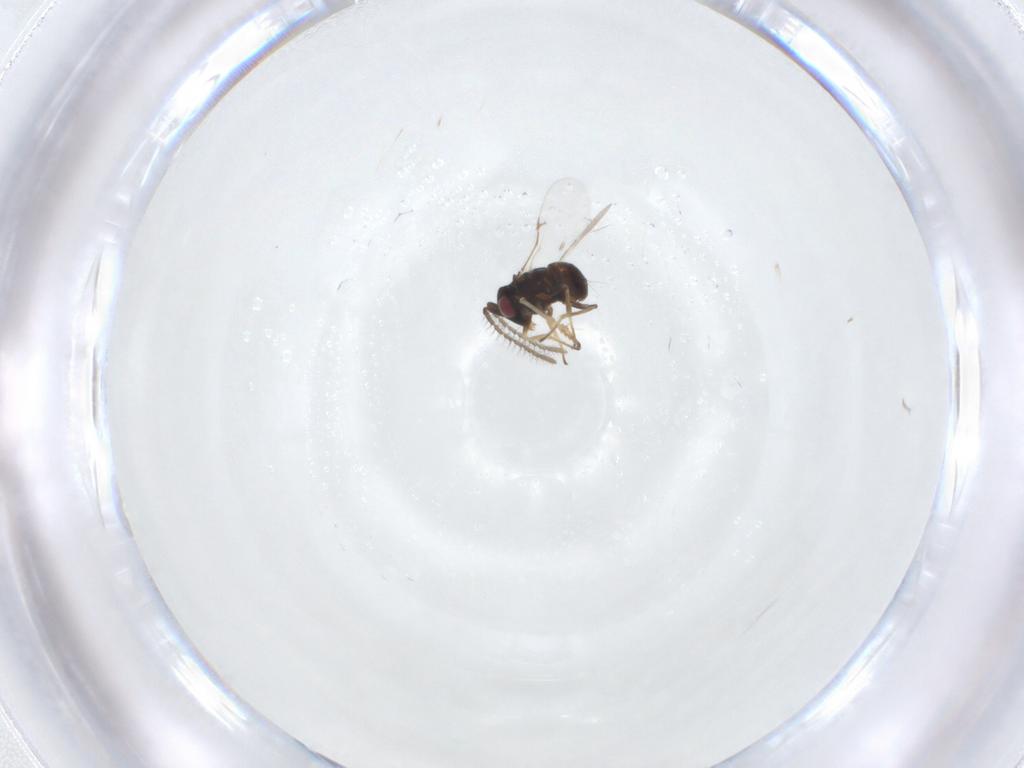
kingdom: Animalia
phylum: Arthropoda
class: Insecta
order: Hymenoptera
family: Encyrtidae
